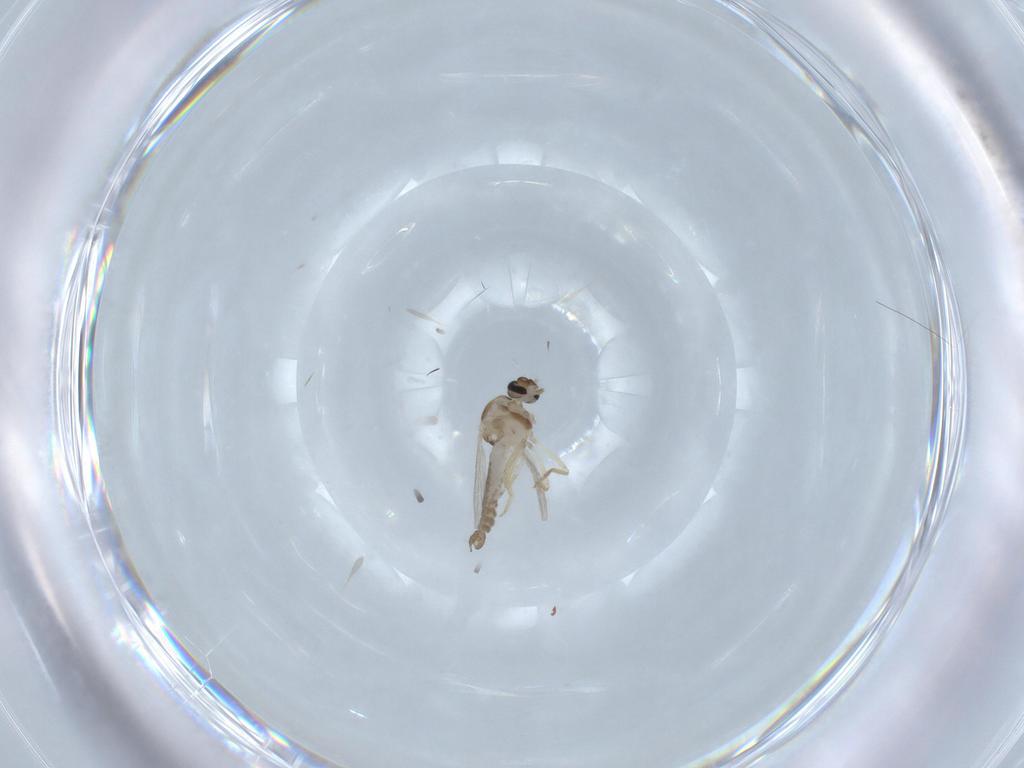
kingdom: Animalia
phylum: Arthropoda
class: Insecta
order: Diptera
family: Ceratopogonidae
